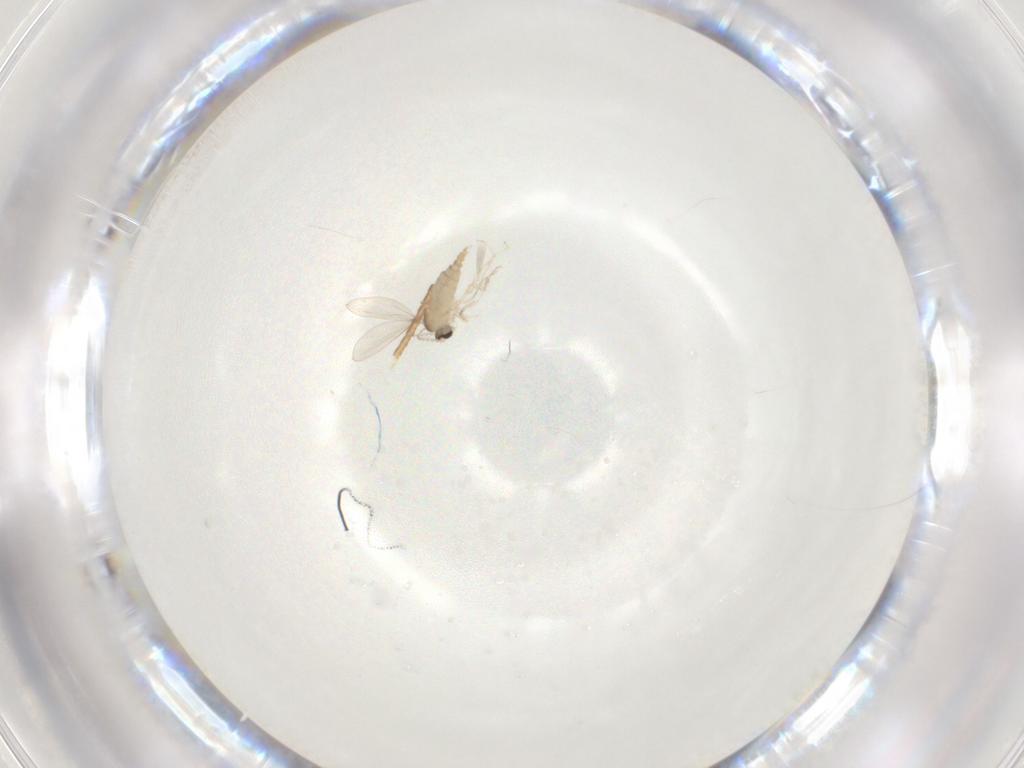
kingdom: Animalia
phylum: Arthropoda
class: Insecta
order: Diptera
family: Cecidomyiidae
